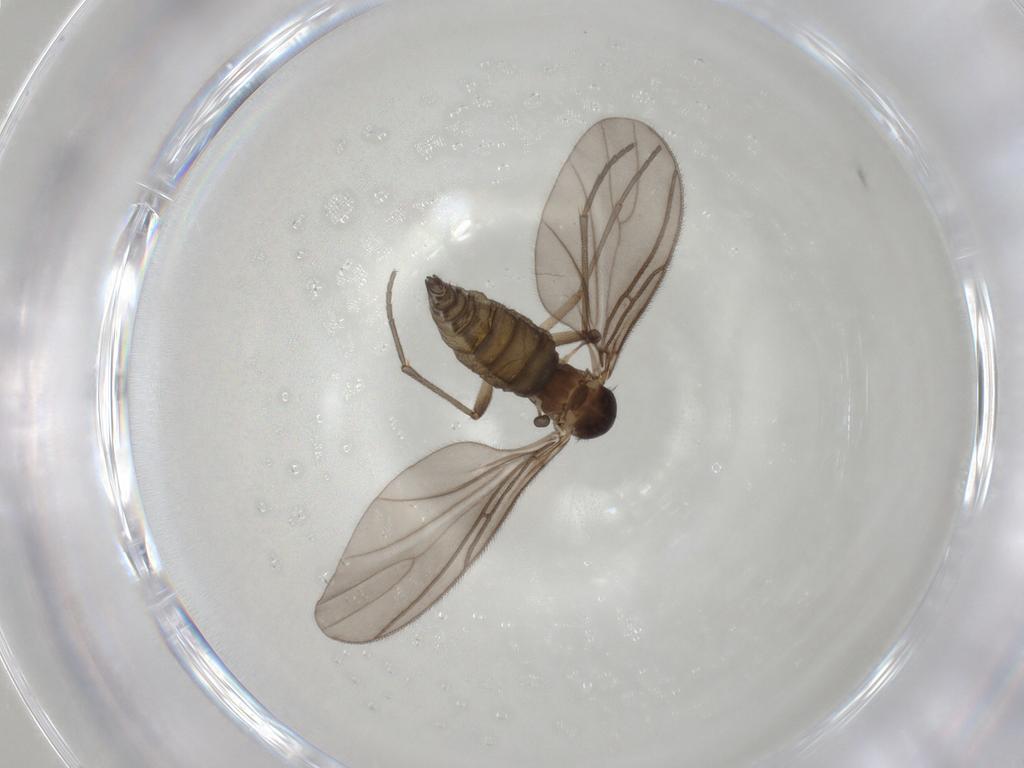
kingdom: Animalia
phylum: Arthropoda
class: Insecta
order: Diptera
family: Sciaridae
